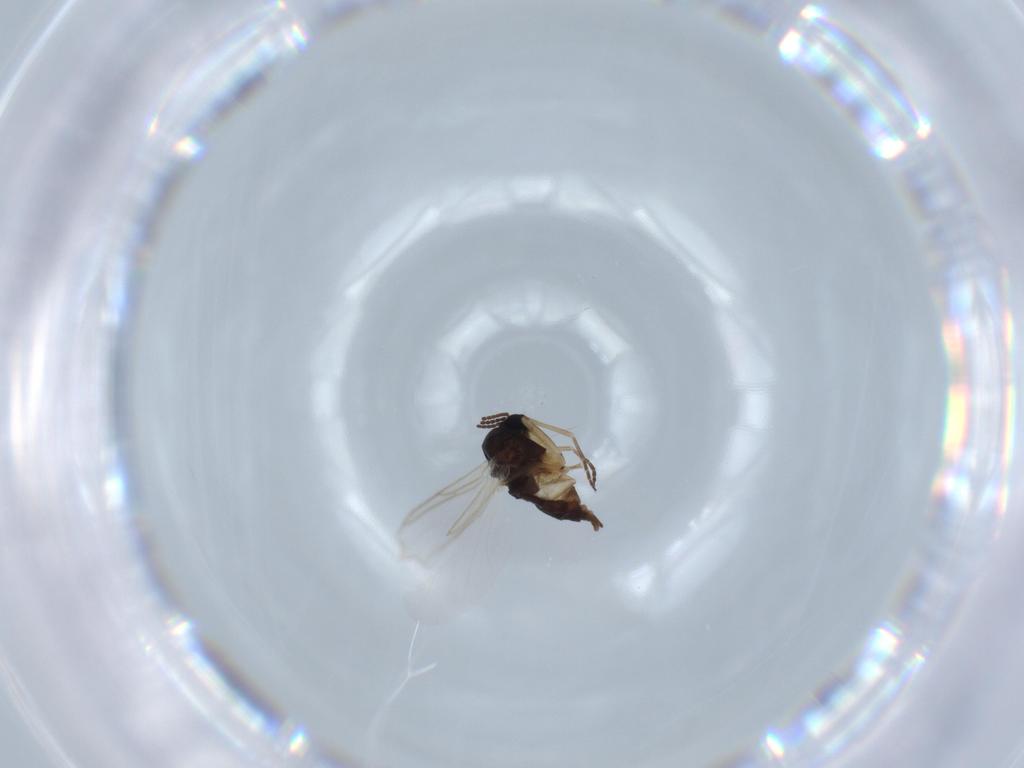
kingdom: Animalia
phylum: Arthropoda
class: Insecta
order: Diptera
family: Sciaridae
